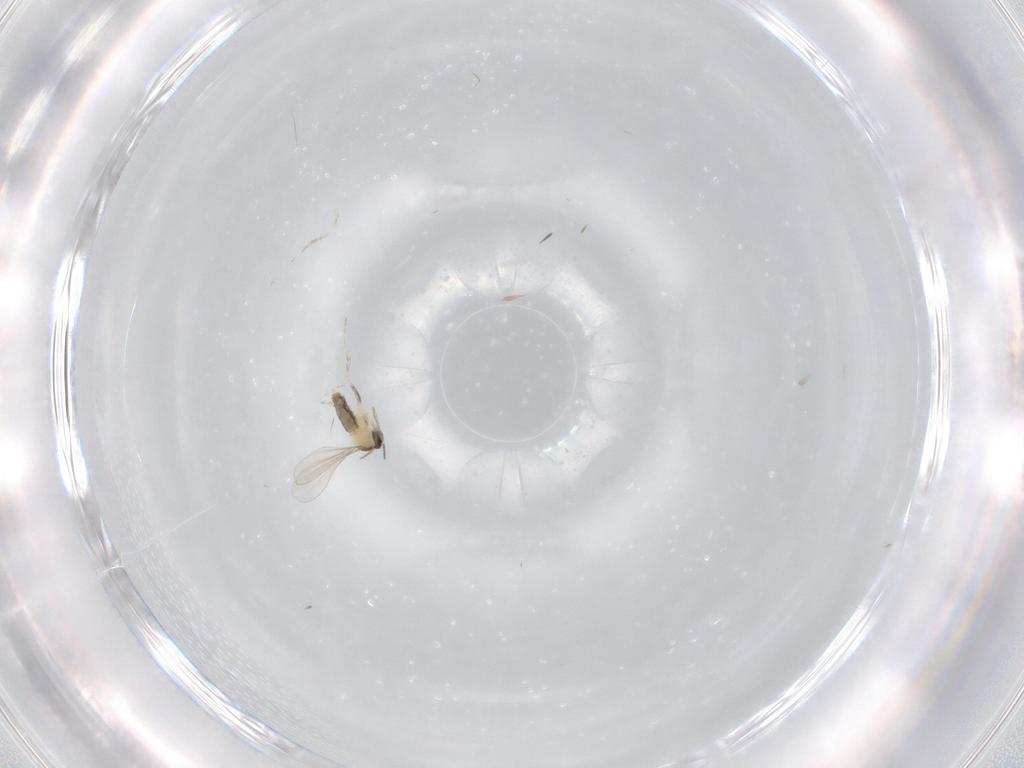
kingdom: Animalia
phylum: Arthropoda
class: Insecta
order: Diptera
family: Cecidomyiidae
